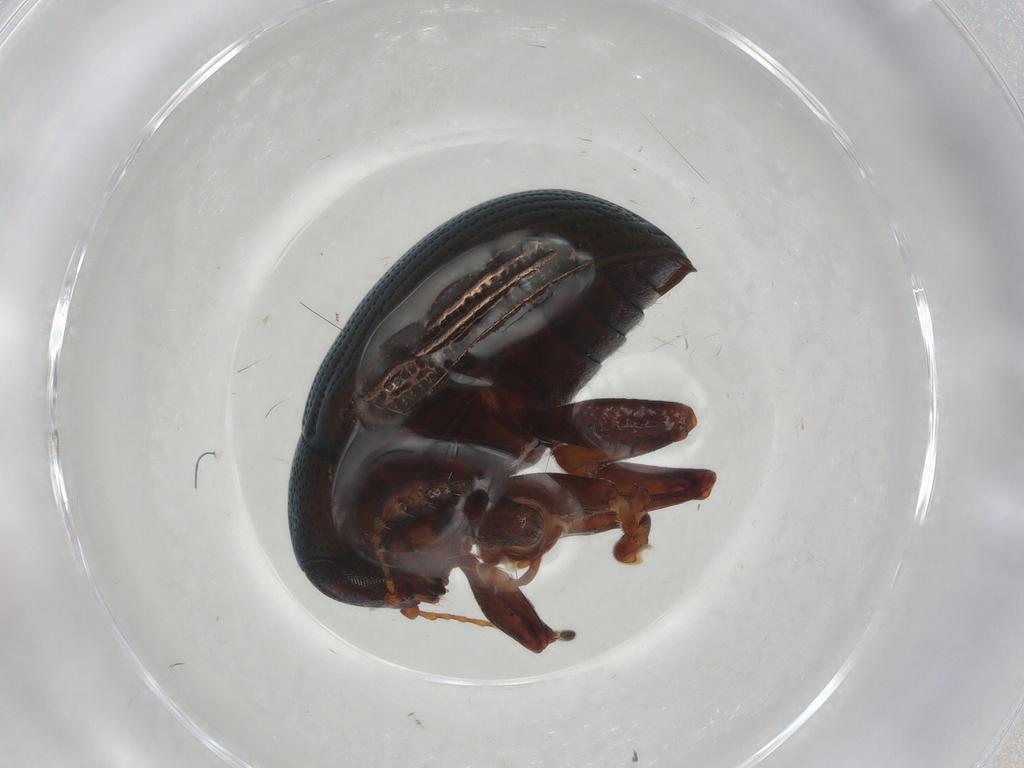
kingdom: Animalia
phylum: Arthropoda
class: Insecta
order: Coleoptera
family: Chrysomelidae
